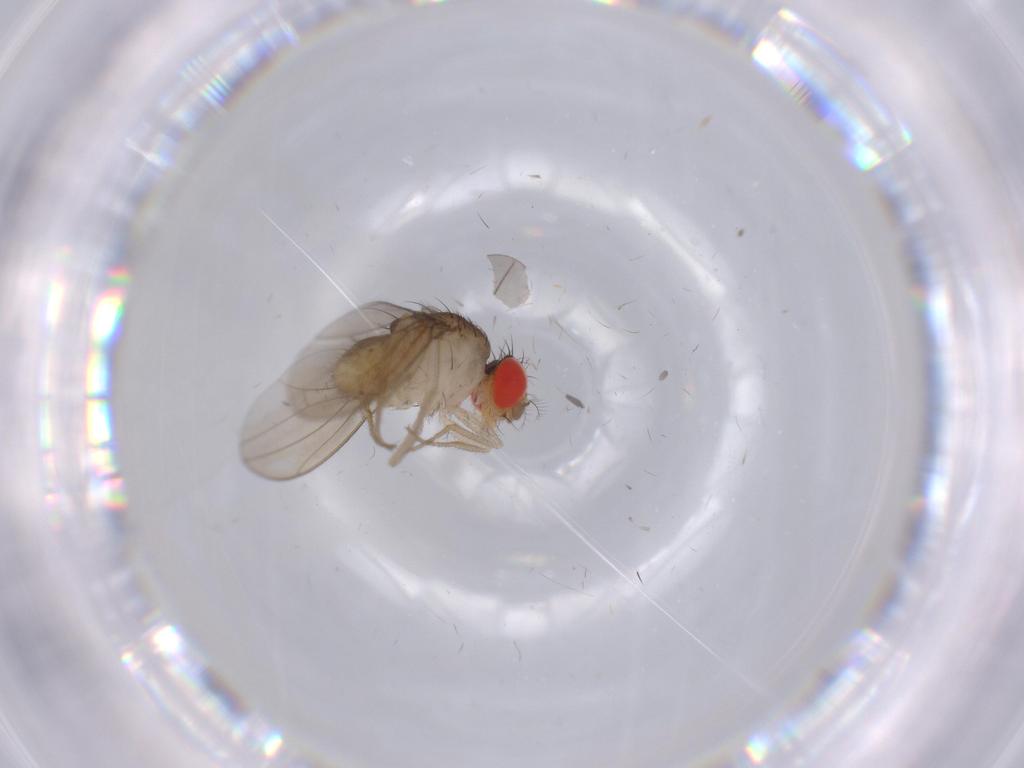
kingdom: Animalia
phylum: Arthropoda
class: Insecta
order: Diptera
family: Drosophilidae
